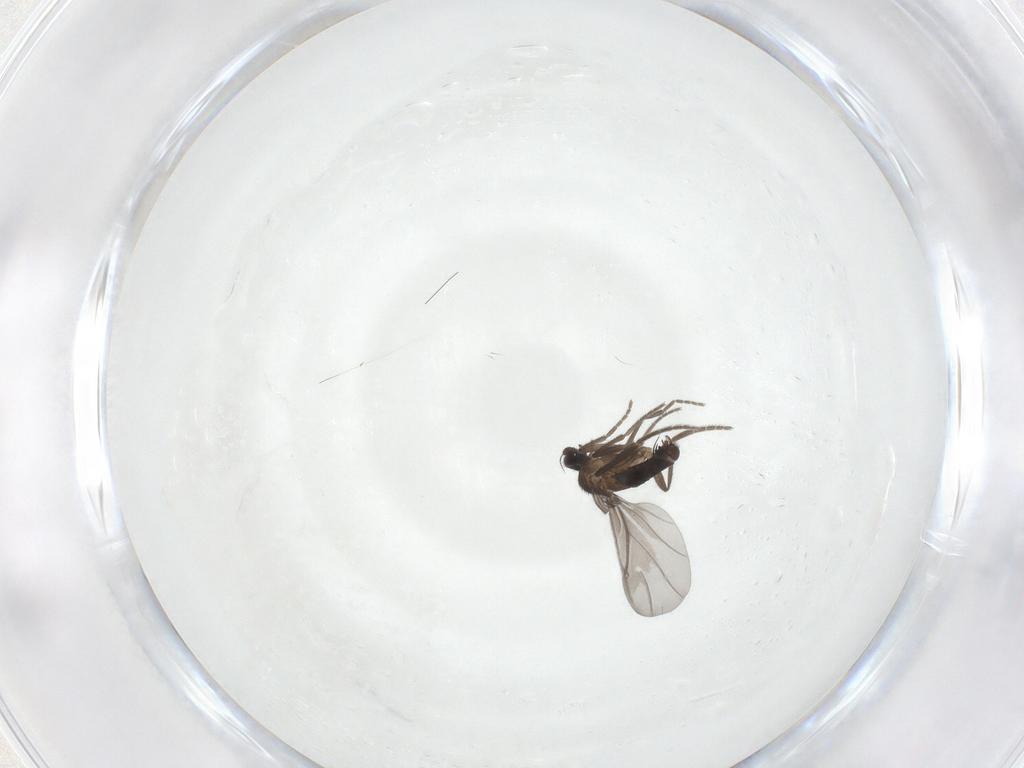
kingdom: Animalia
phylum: Arthropoda
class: Insecta
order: Diptera
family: Phoridae
